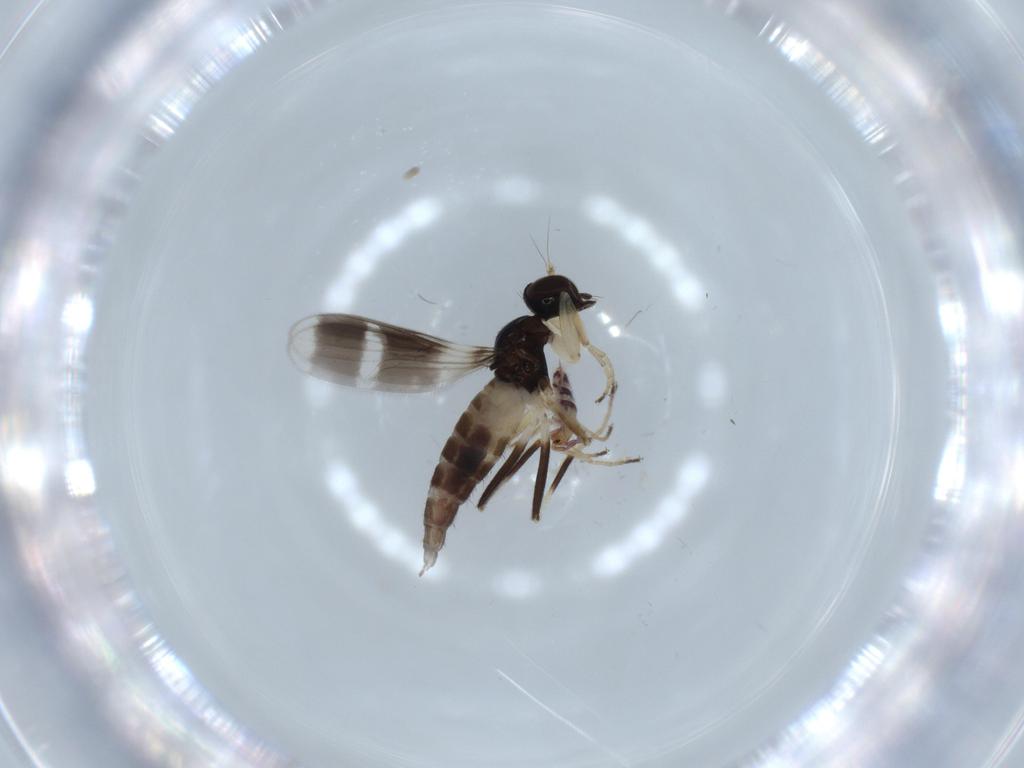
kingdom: Animalia
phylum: Arthropoda
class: Collembola
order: Entomobryomorpha
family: Entomobryidae
